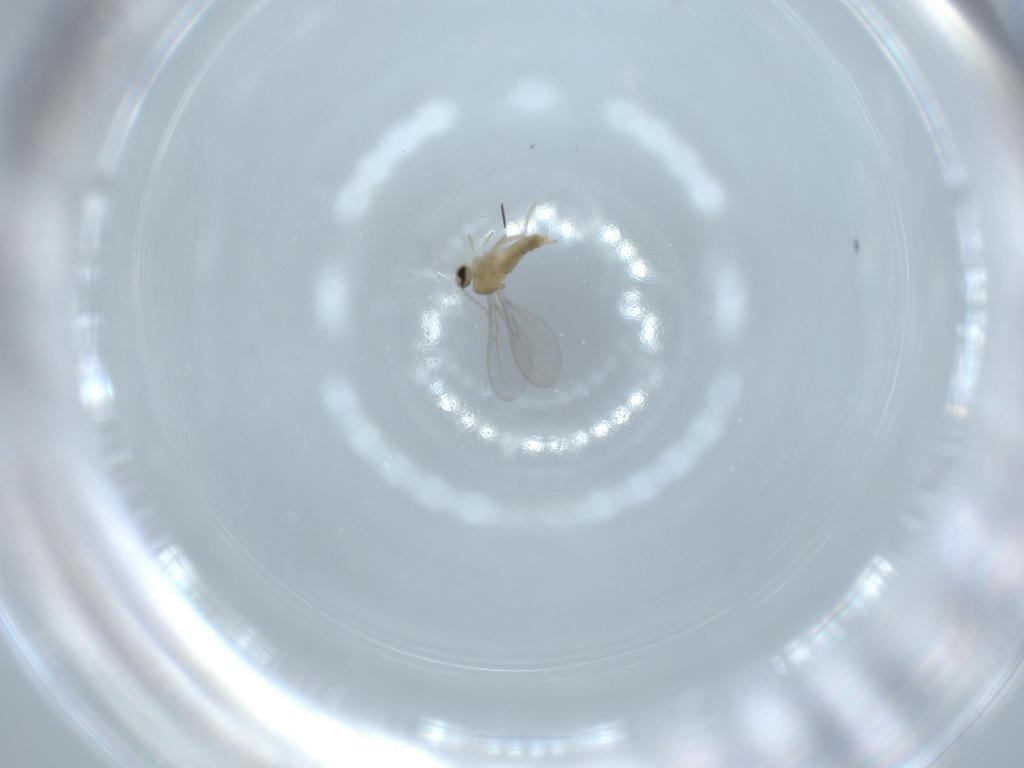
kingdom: Animalia
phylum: Arthropoda
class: Insecta
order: Diptera
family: Pipunculidae
